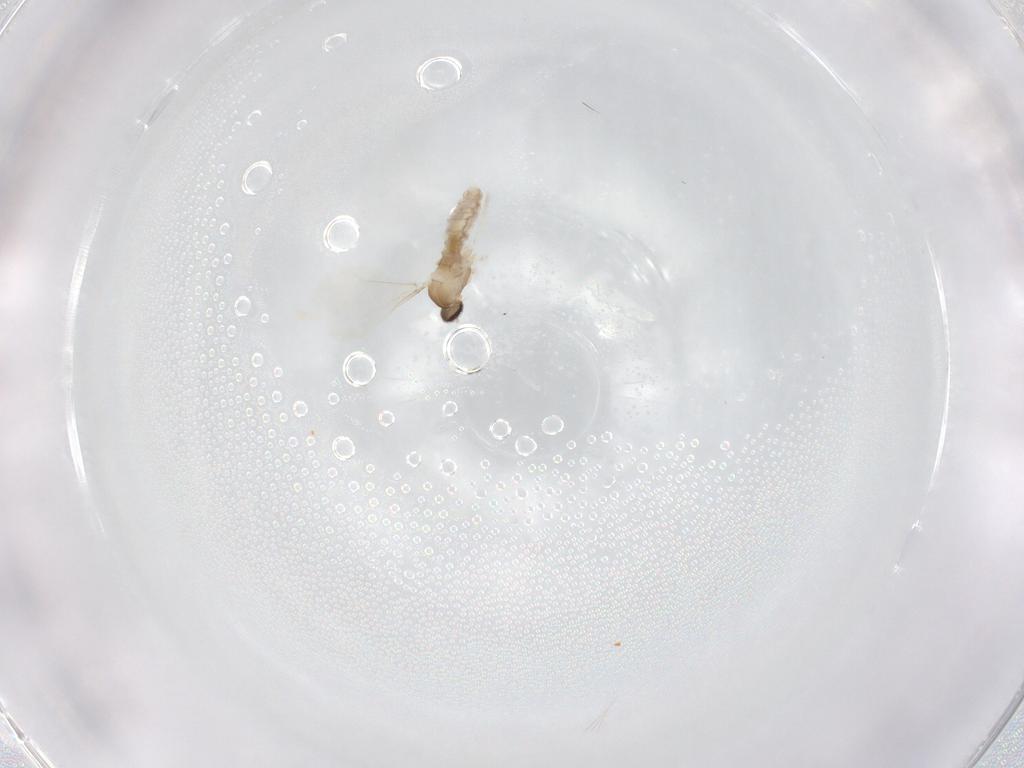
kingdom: Animalia
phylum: Arthropoda
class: Insecta
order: Diptera
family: Cecidomyiidae
